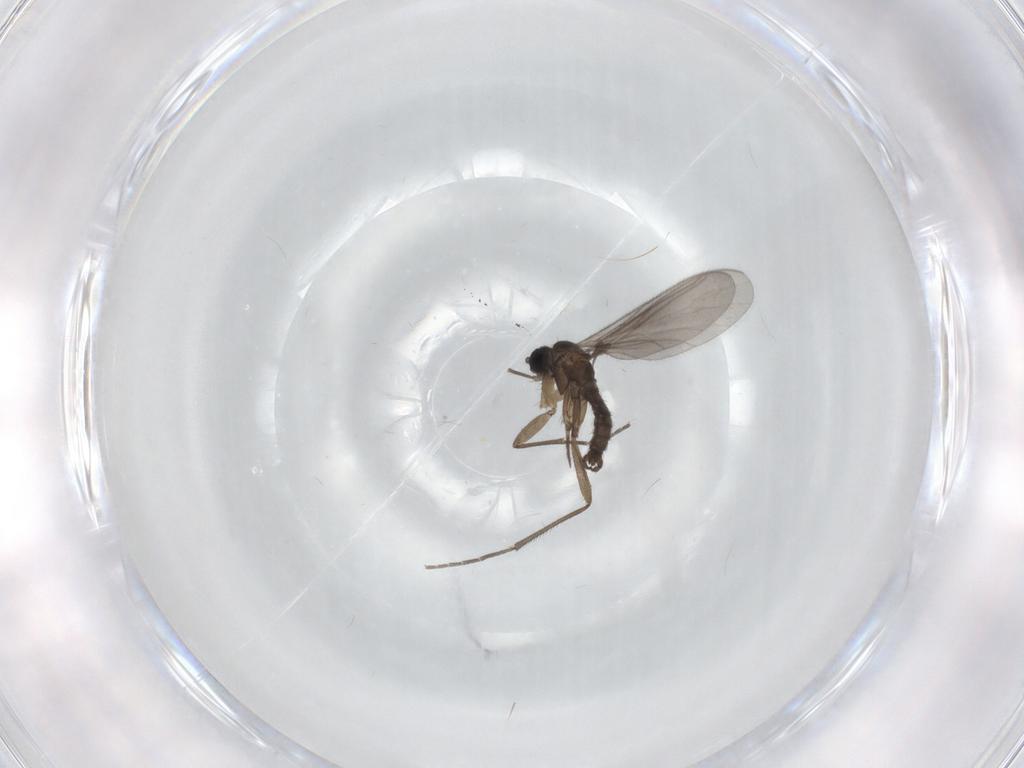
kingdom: Animalia
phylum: Arthropoda
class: Insecta
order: Diptera
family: Sciaridae
